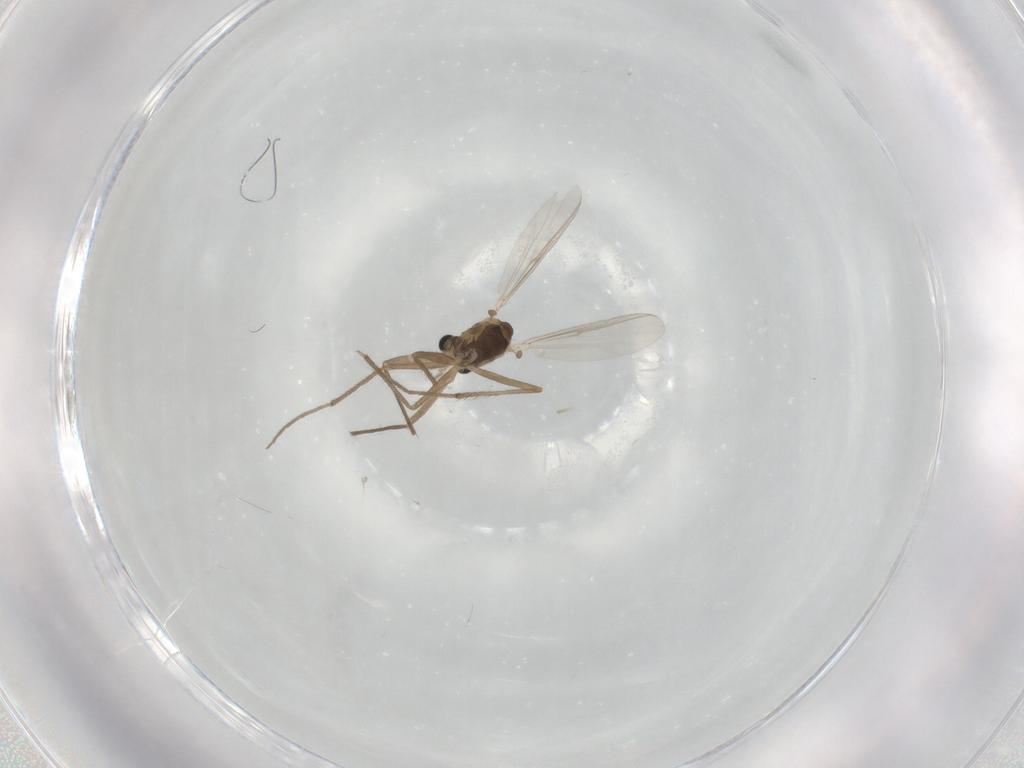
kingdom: Animalia
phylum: Arthropoda
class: Insecta
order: Diptera
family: Chironomidae
